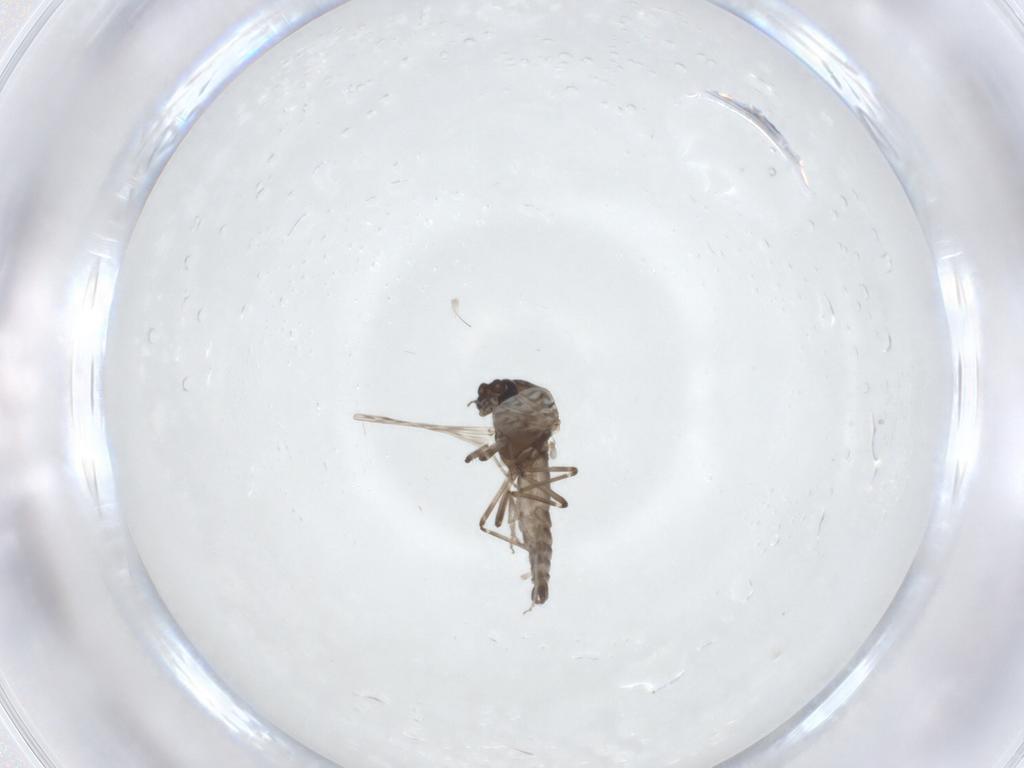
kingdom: Animalia
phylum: Arthropoda
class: Insecta
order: Diptera
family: Ceratopogonidae
